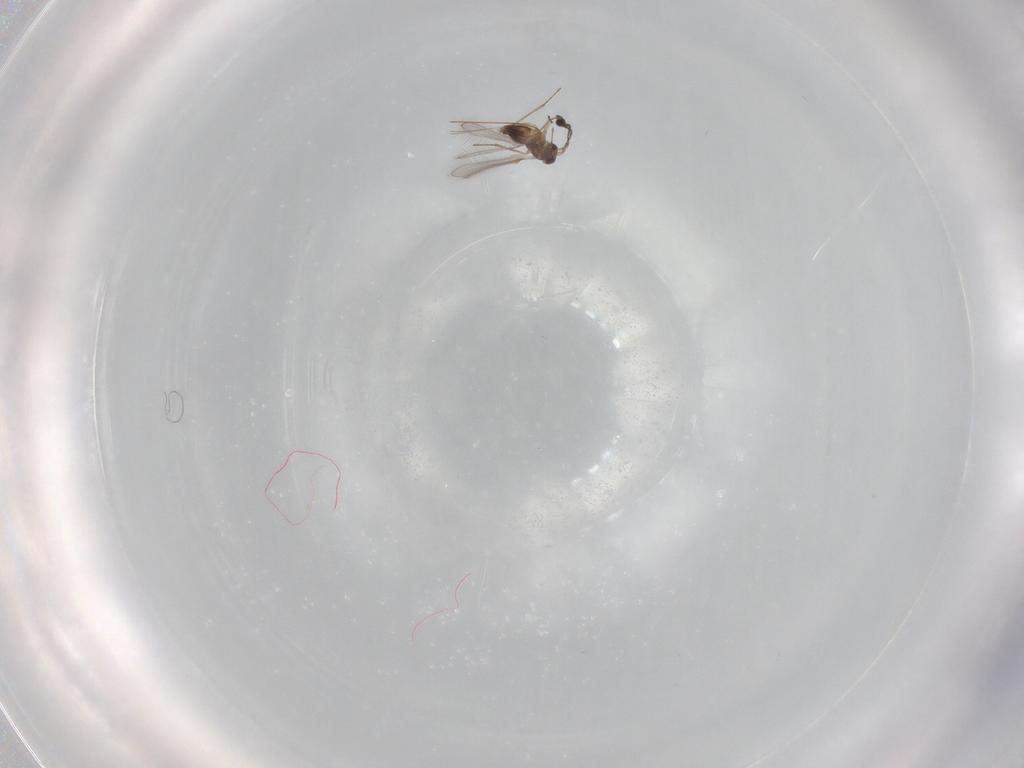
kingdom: Animalia
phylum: Arthropoda
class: Insecta
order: Hymenoptera
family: Mymaridae
